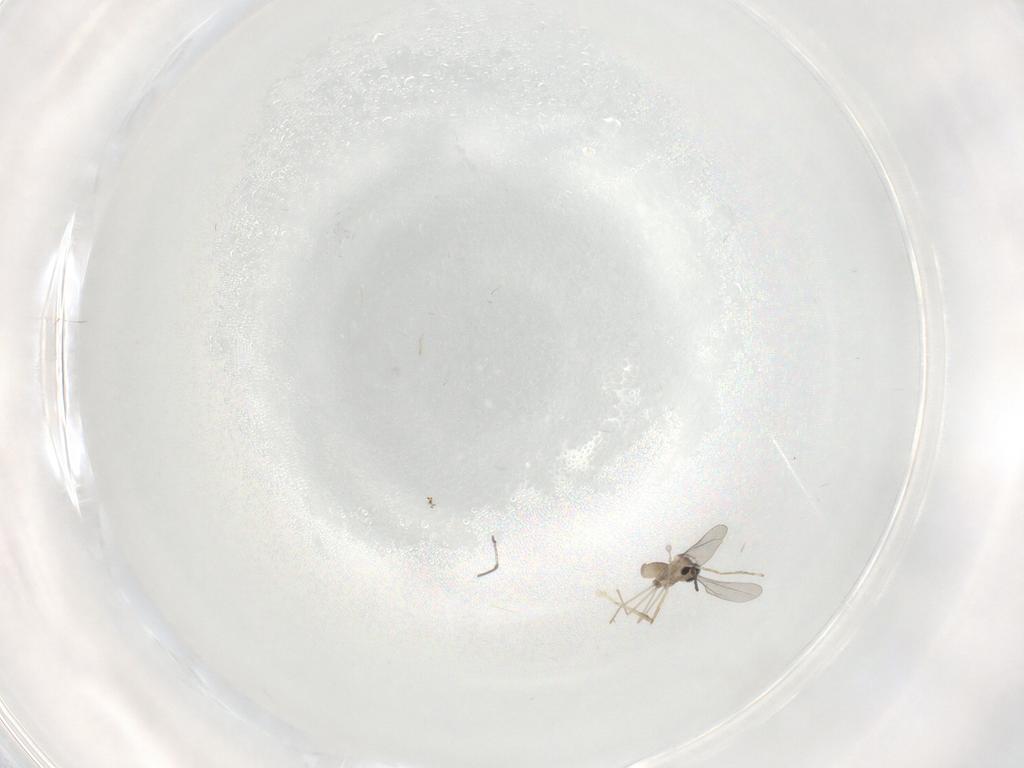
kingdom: Animalia
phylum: Arthropoda
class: Insecta
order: Diptera
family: Cecidomyiidae
